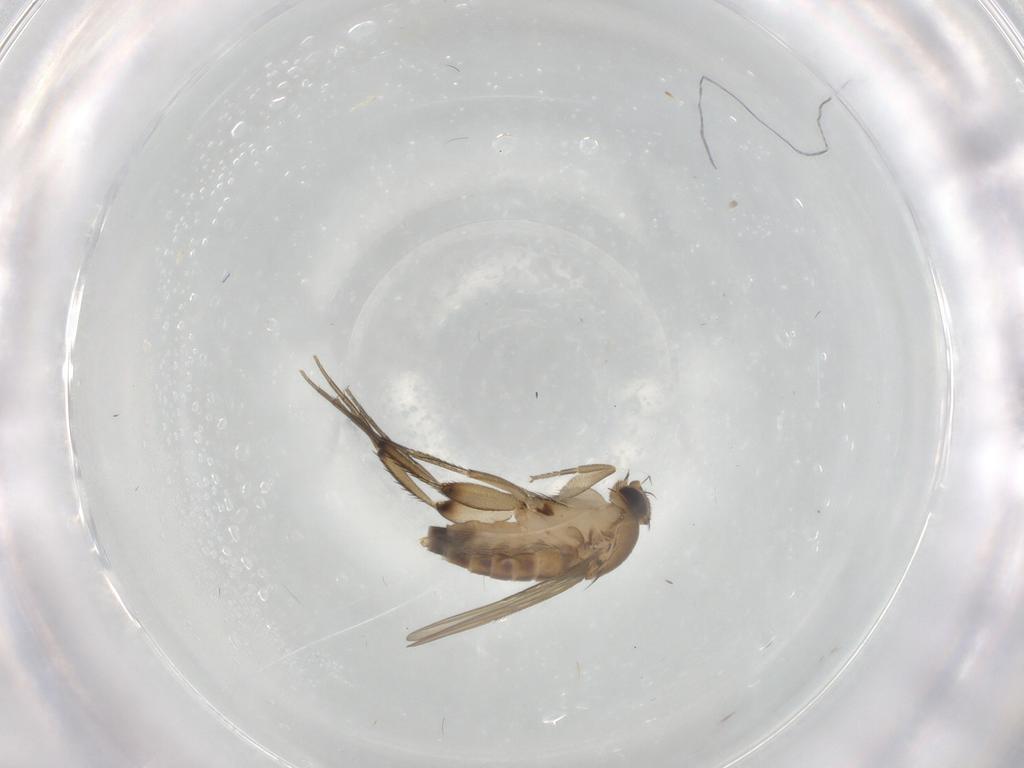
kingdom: Animalia
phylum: Arthropoda
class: Insecta
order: Diptera
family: Phoridae
